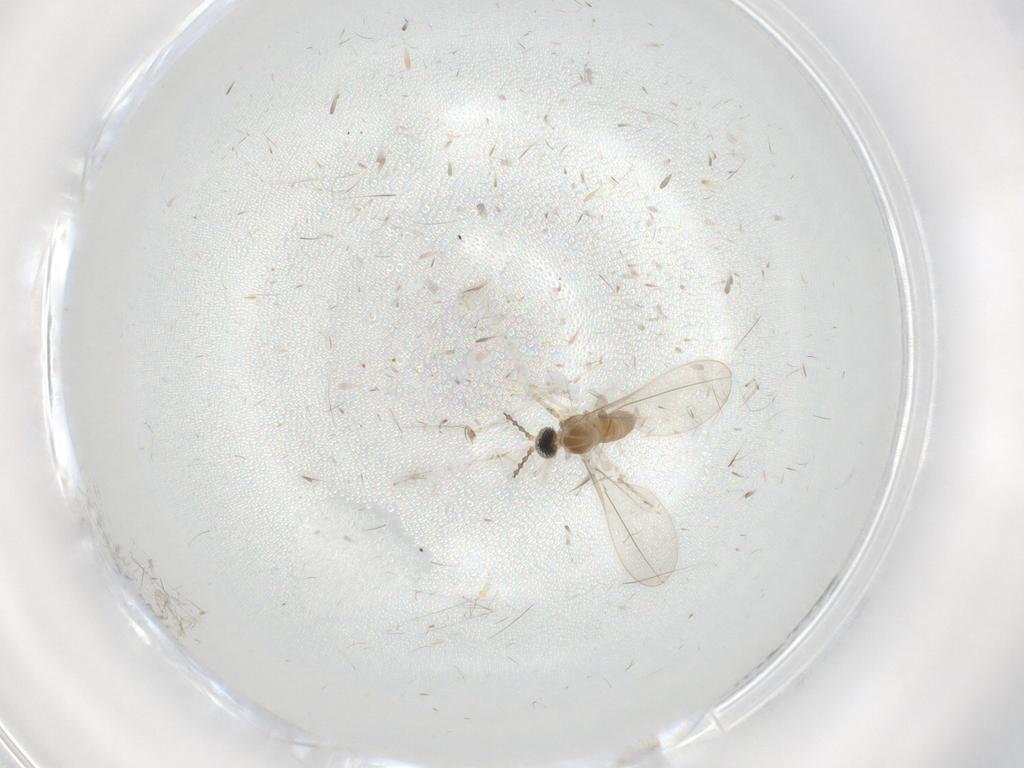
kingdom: Animalia
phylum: Arthropoda
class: Insecta
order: Diptera
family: Cecidomyiidae
